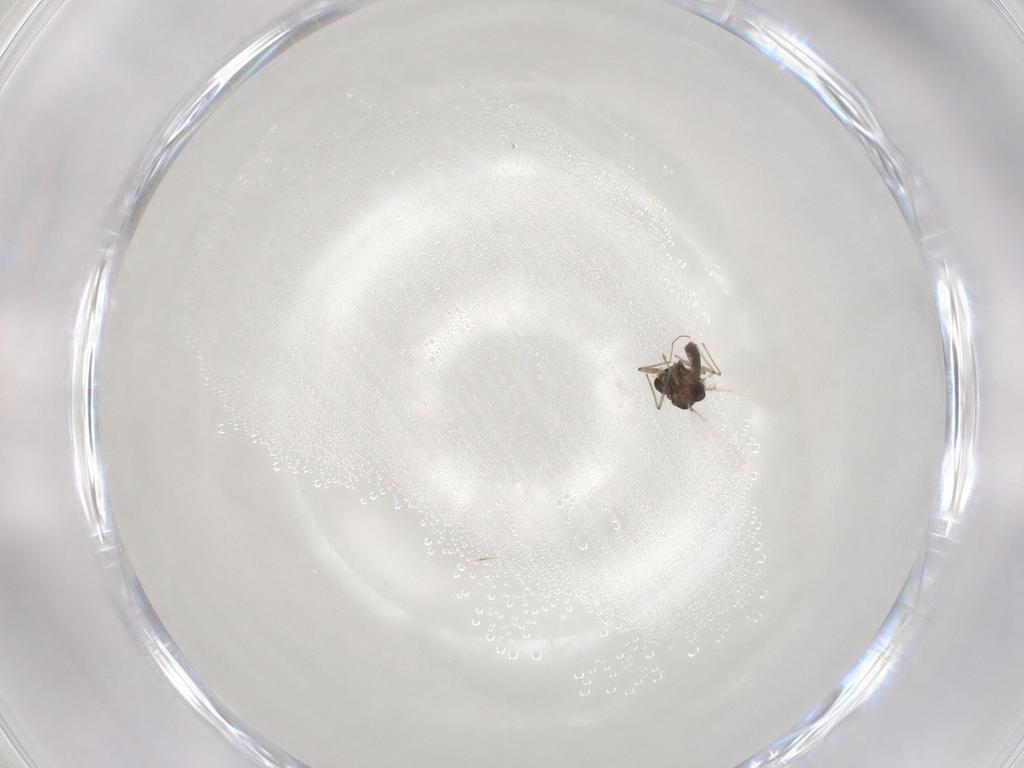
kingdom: Animalia
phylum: Arthropoda
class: Insecta
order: Diptera
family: Chironomidae
